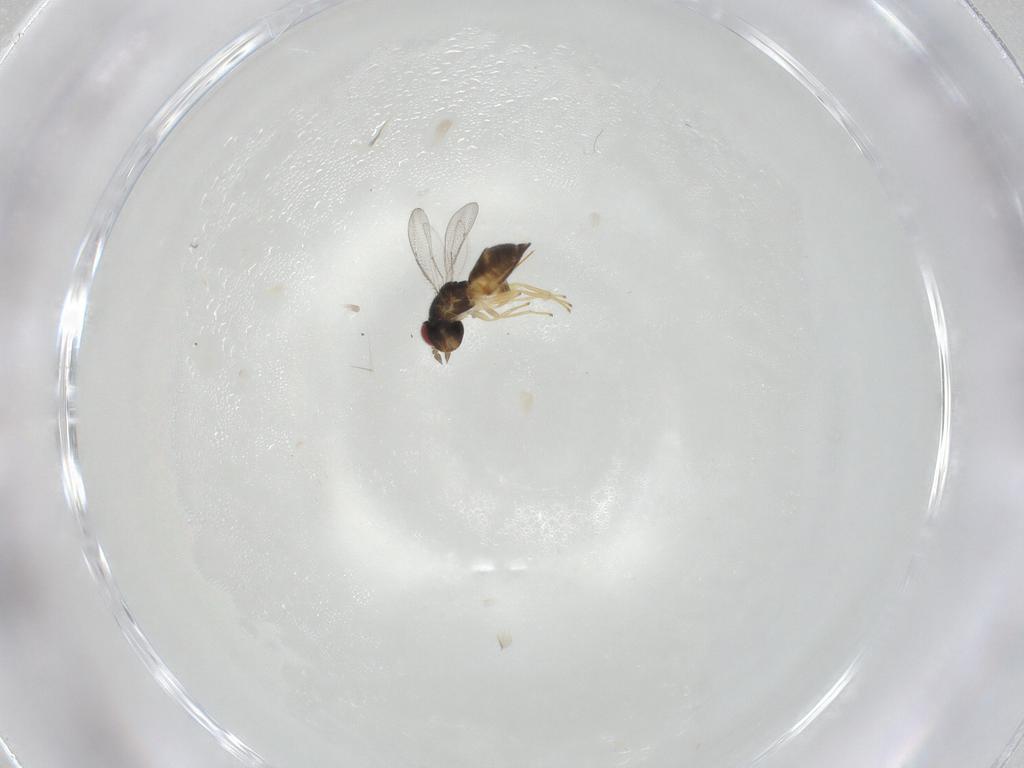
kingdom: Animalia
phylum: Arthropoda
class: Insecta
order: Hymenoptera
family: Eulophidae
